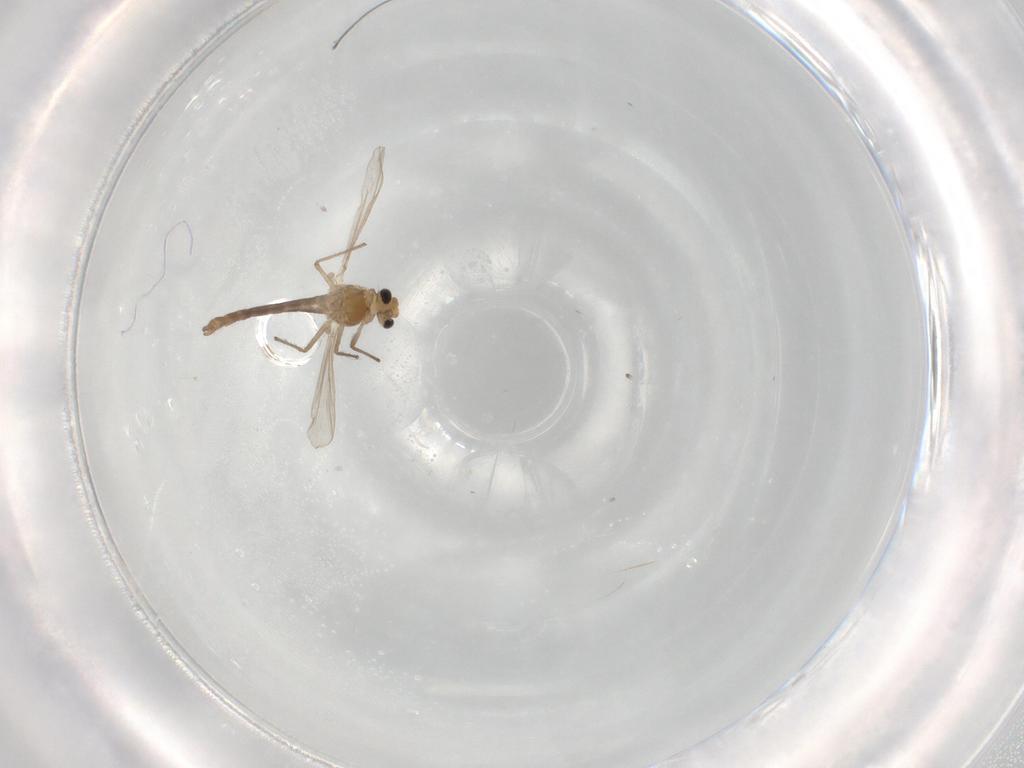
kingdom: Animalia
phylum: Arthropoda
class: Insecta
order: Diptera
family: Chironomidae
